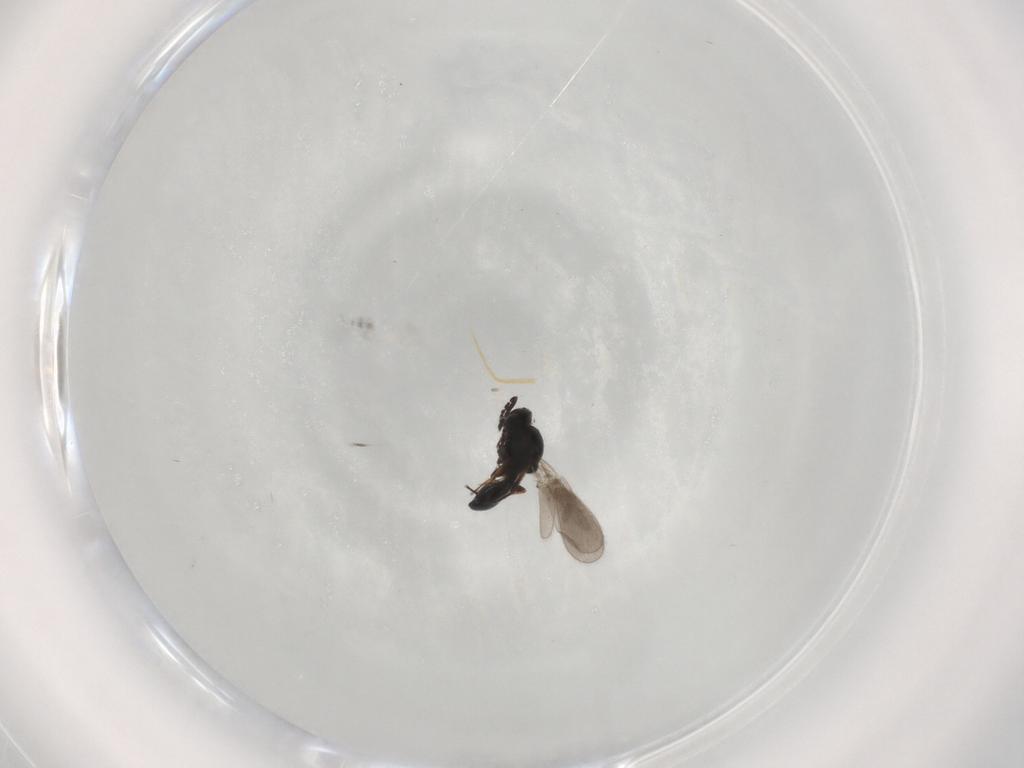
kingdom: Animalia
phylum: Arthropoda
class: Insecta
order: Hymenoptera
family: Platygastridae
